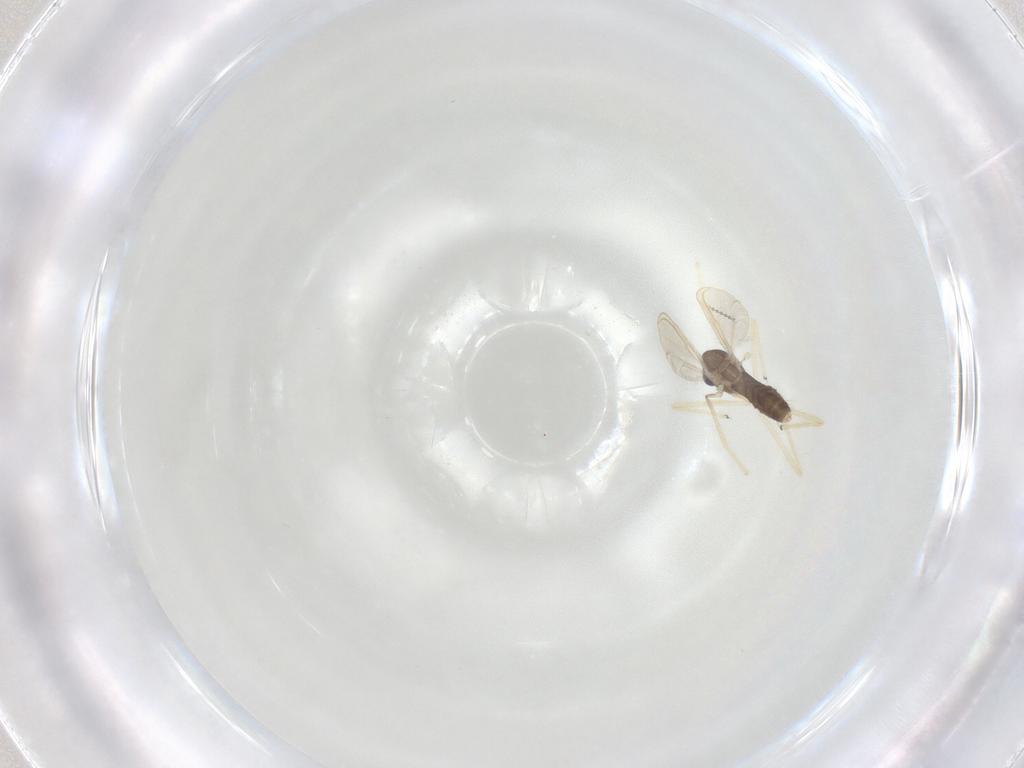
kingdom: Animalia
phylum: Arthropoda
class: Insecta
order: Diptera
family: Chironomidae
